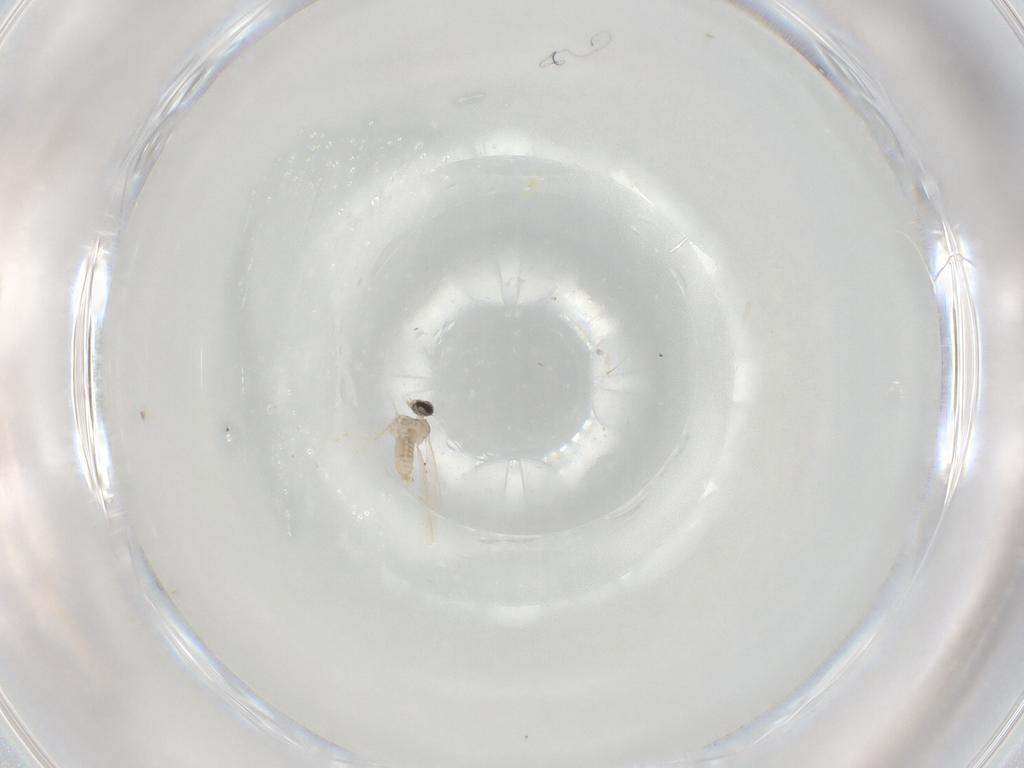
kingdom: Animalia
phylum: Arthropoda
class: Insecta
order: Diptera
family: Cecidomyiidae
